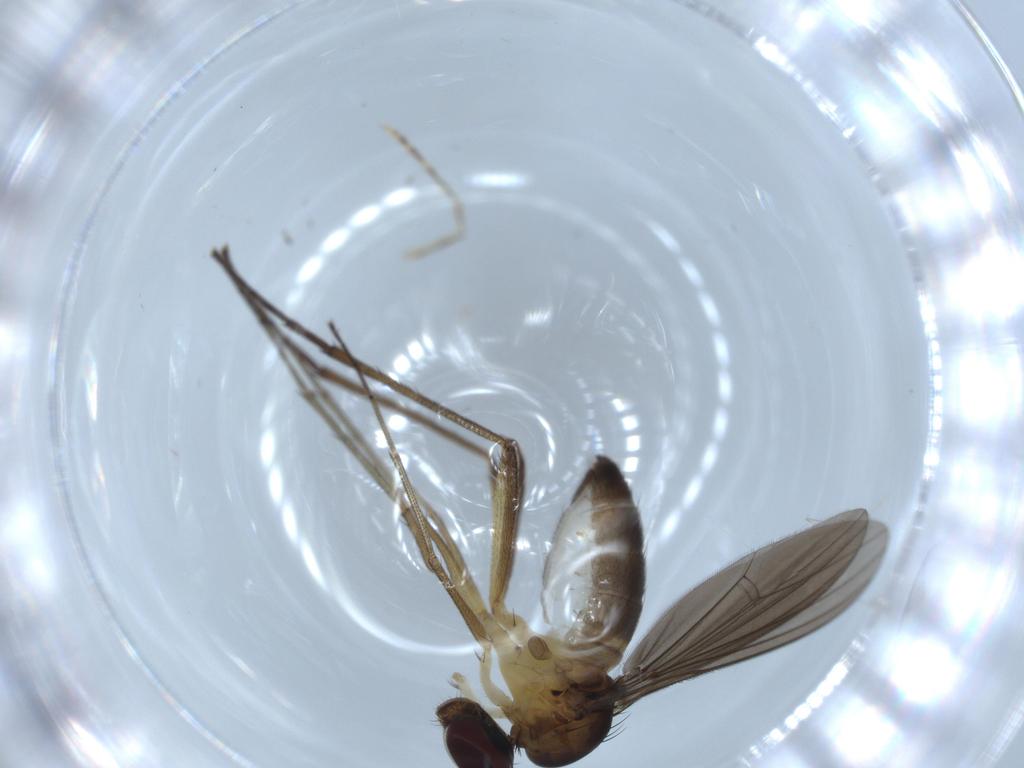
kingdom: Animalia
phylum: Arthropoda
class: Insecta
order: Diptera
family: Dolichopodidae
